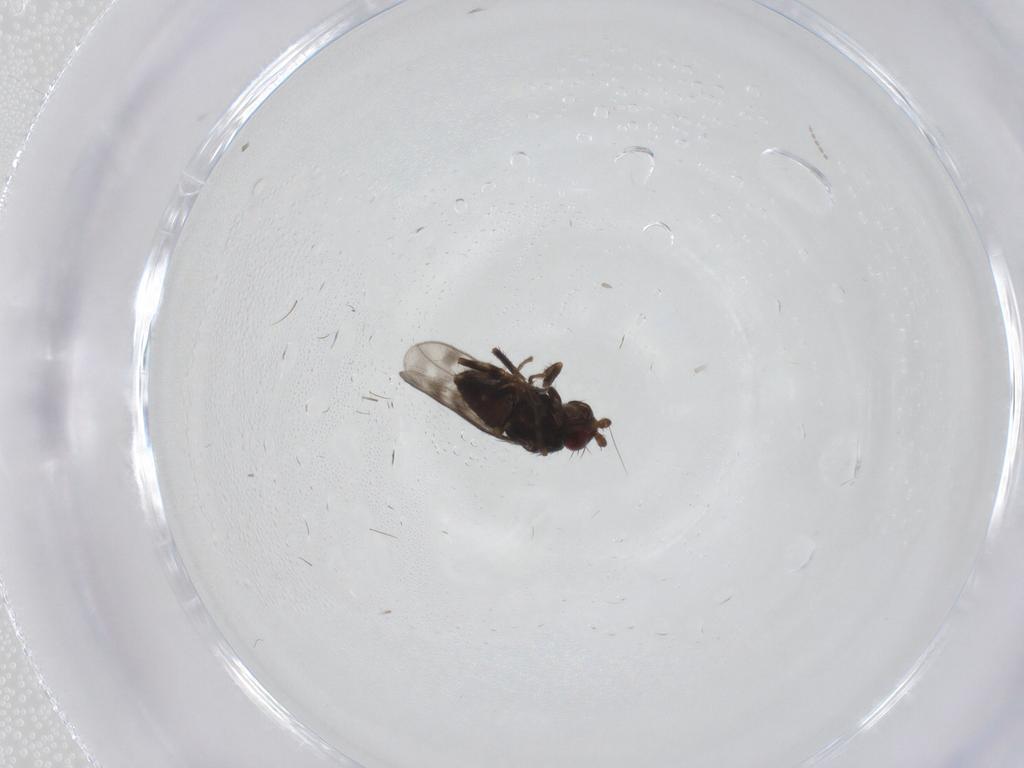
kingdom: Animalia
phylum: Arthropoda
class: Insecta
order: Diptera
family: Sphaeroceridae
